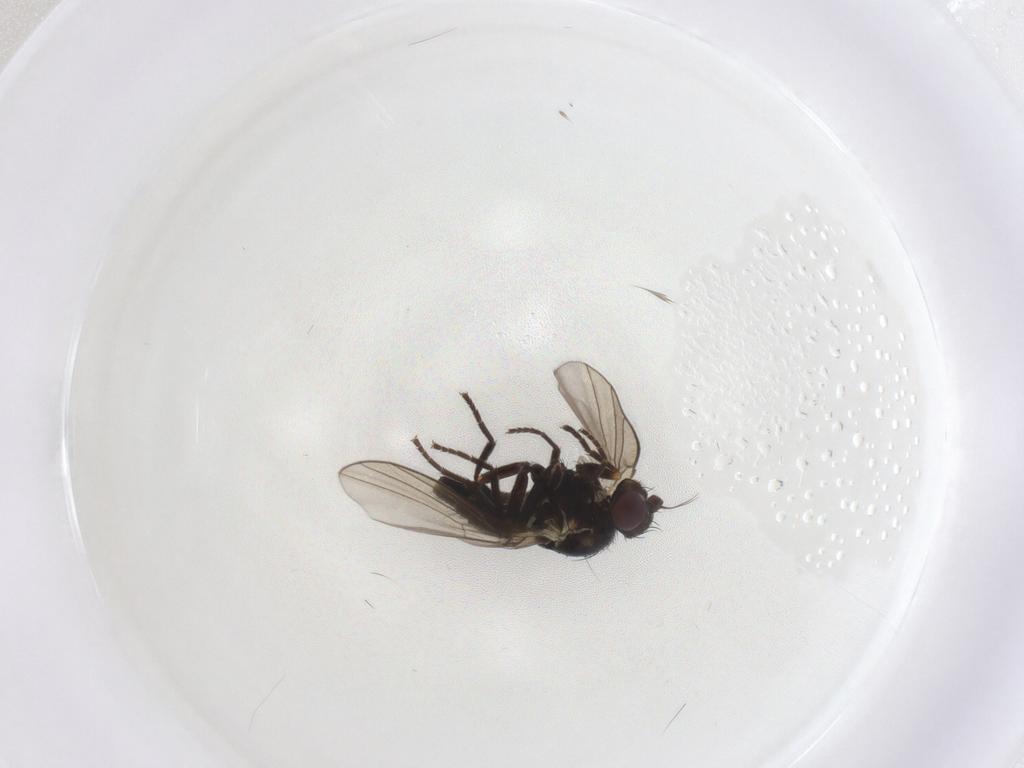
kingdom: Animalia
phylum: Arthropoda
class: Insecta
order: Diptera
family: Agromyzidae
